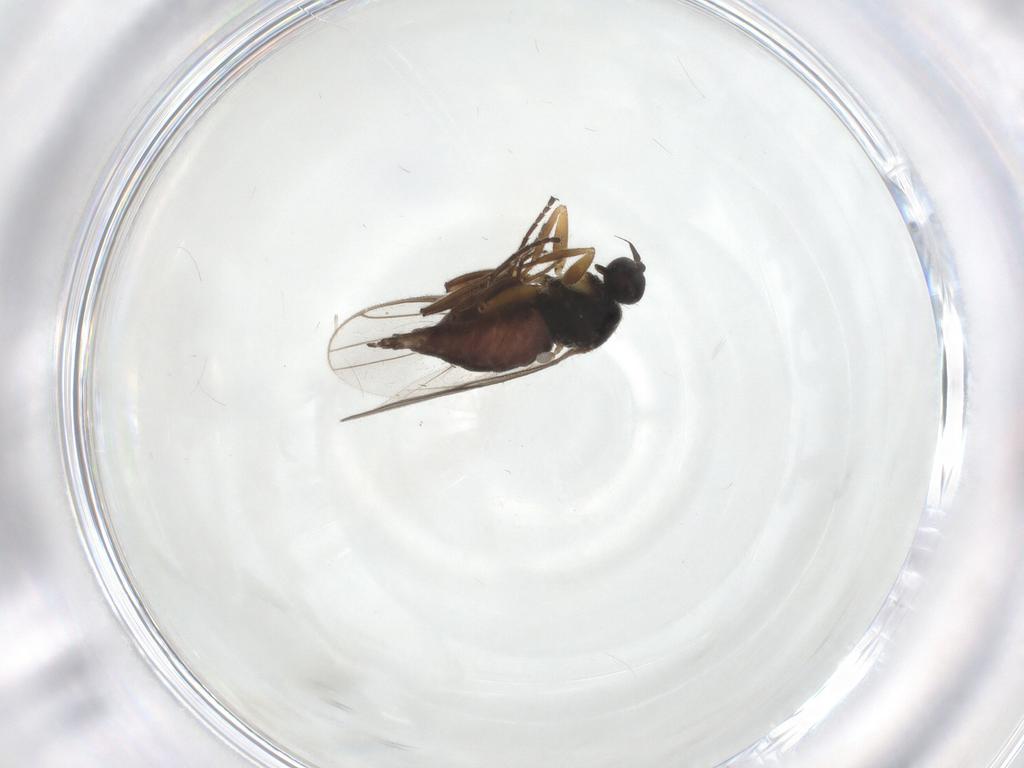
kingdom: Animalia
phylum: Arthropoda
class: Insecta
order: Diptera
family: Hybotidae
